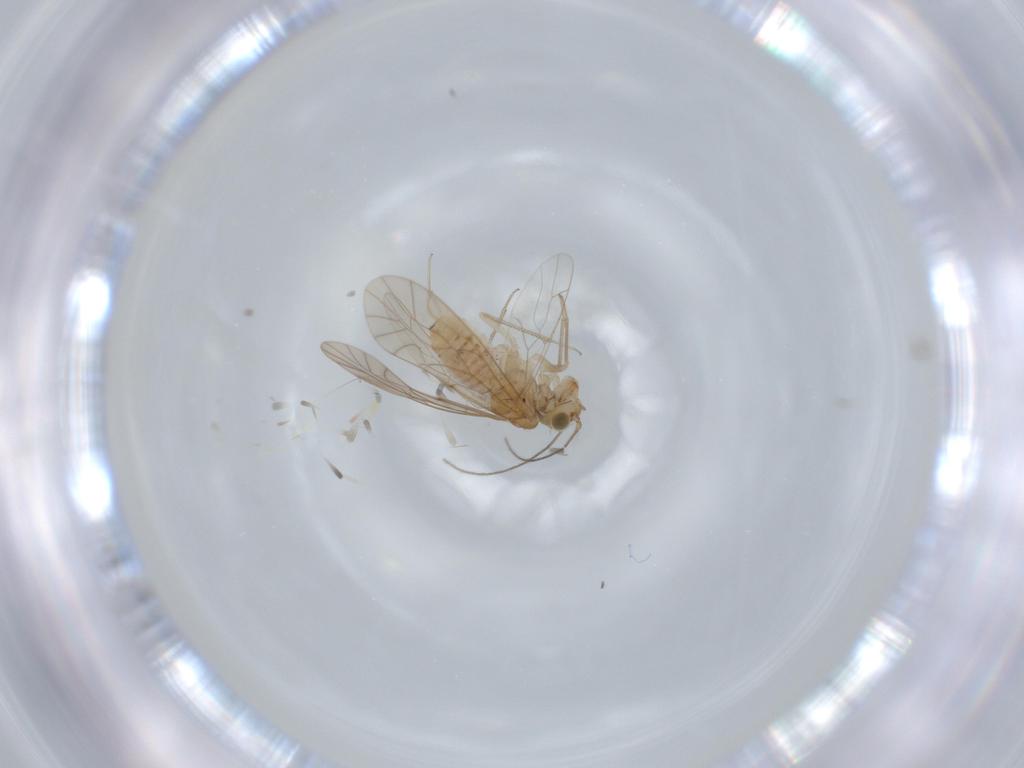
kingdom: Animalia
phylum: Arthropoda
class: Insecta
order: Psocodea
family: Lachesillidae
